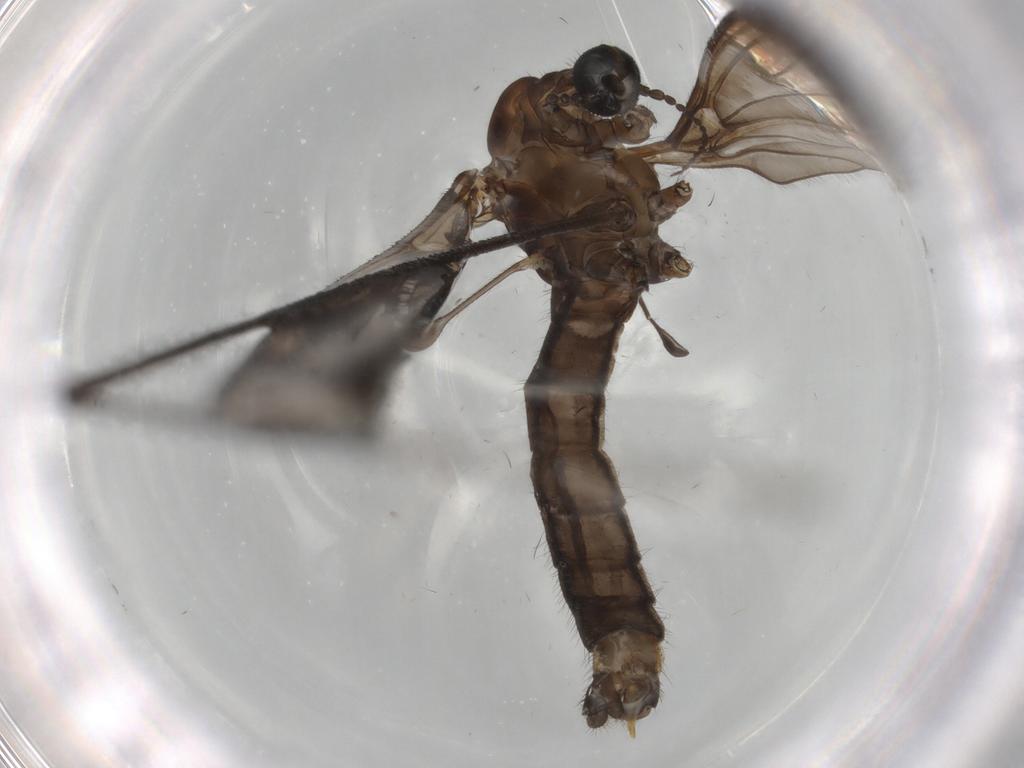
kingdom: Animalia
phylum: Arthropoda
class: Insecta
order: Diptera
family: Limoniidae
